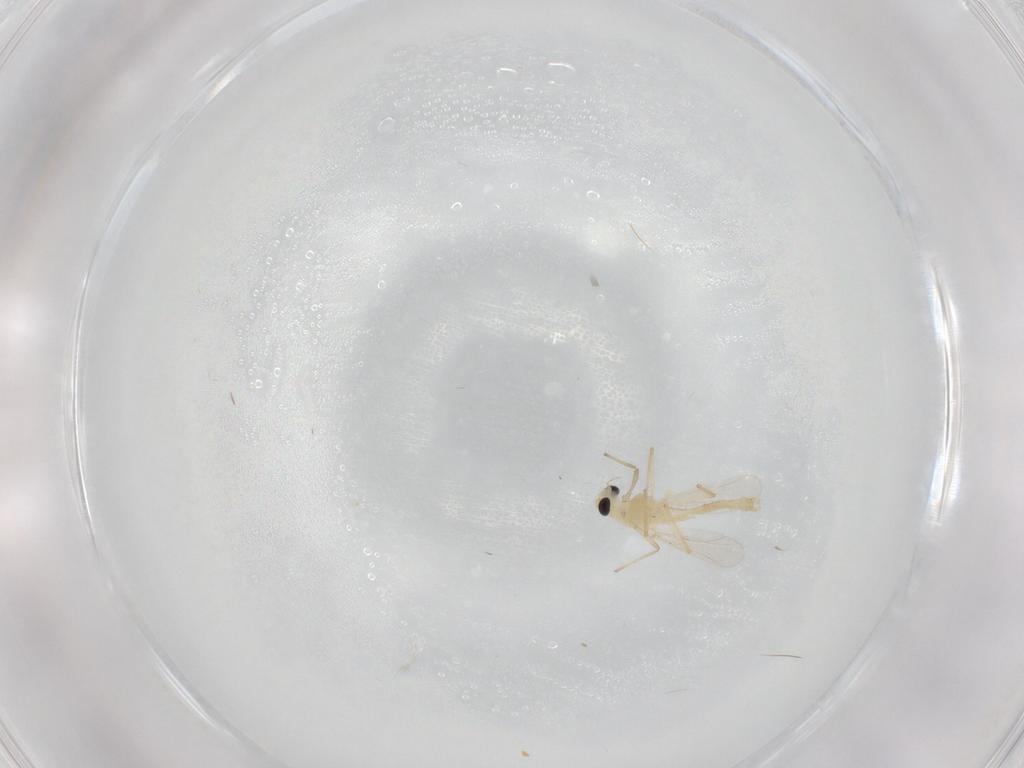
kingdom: Animalia
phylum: Arthropoda
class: Insecta
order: Diptera
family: Chironomidae
